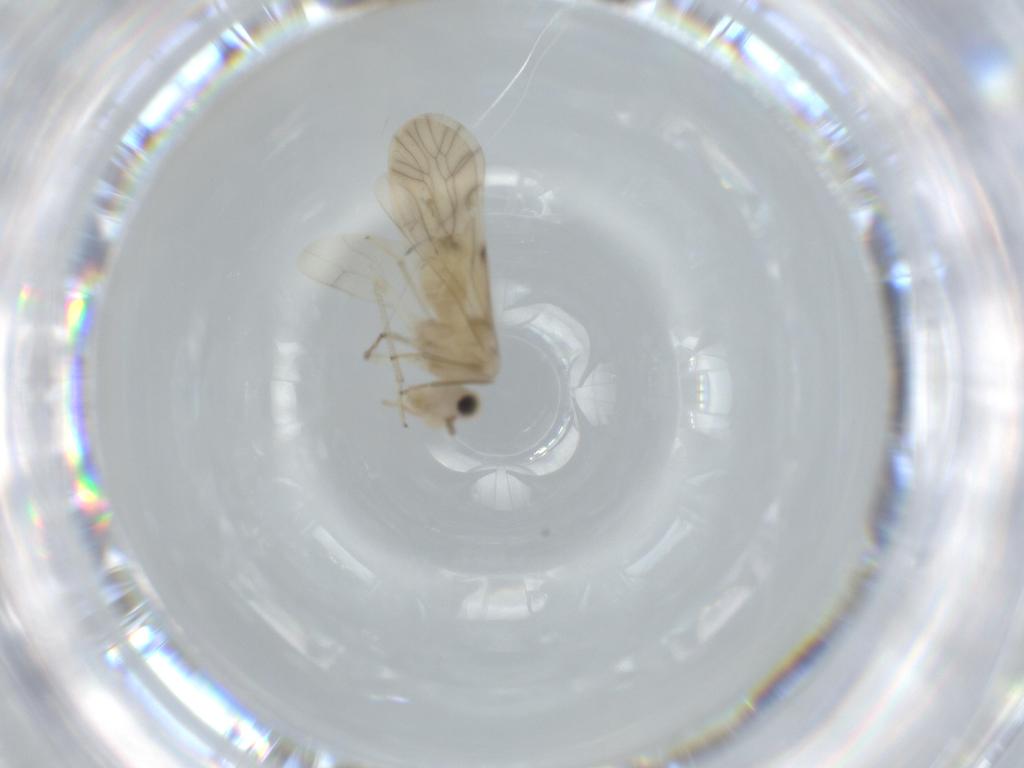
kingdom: Animalia
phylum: Arthropoda
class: Insecta
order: Psocodea
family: Caeciliusidae
